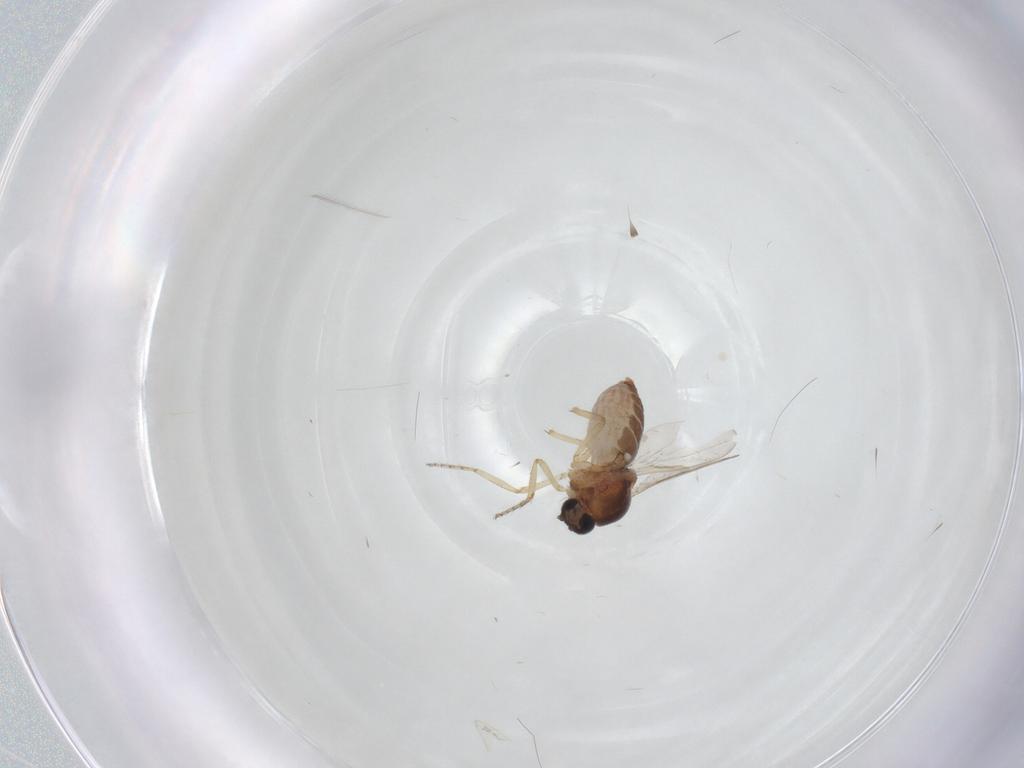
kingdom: Animalia
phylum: Arthropoda
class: Insecta
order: Diptera
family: Ceratopogonidae
